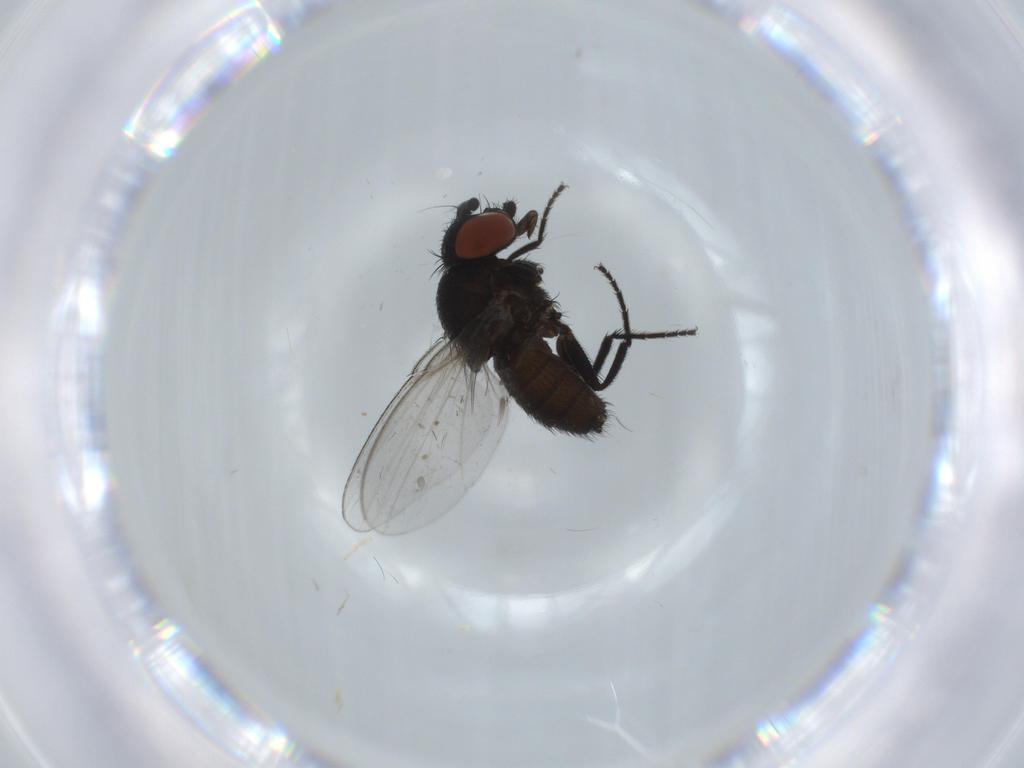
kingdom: Animalia
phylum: Arthropoda
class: Insecta
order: Diptera
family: Milichiidae
